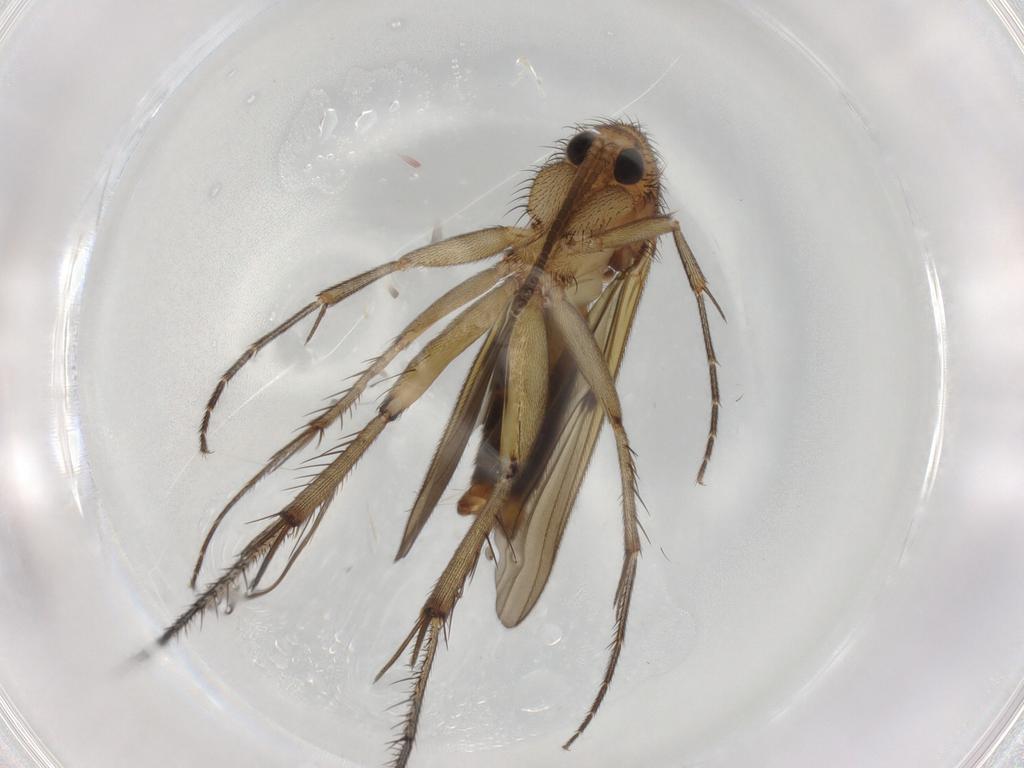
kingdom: Animalia
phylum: Arthropoda
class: Insecta
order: Diptera
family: Mycetophilidae
